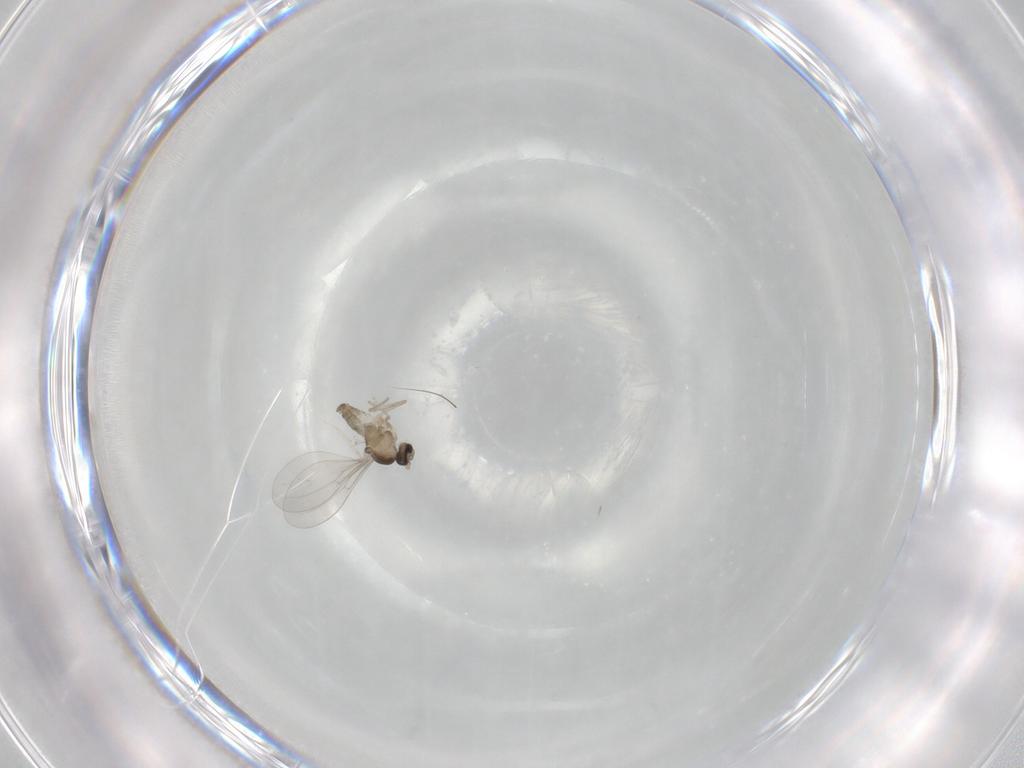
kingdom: Animalia
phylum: Arthropoda
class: Insecta
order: Diptera
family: Cecidomyiidae
